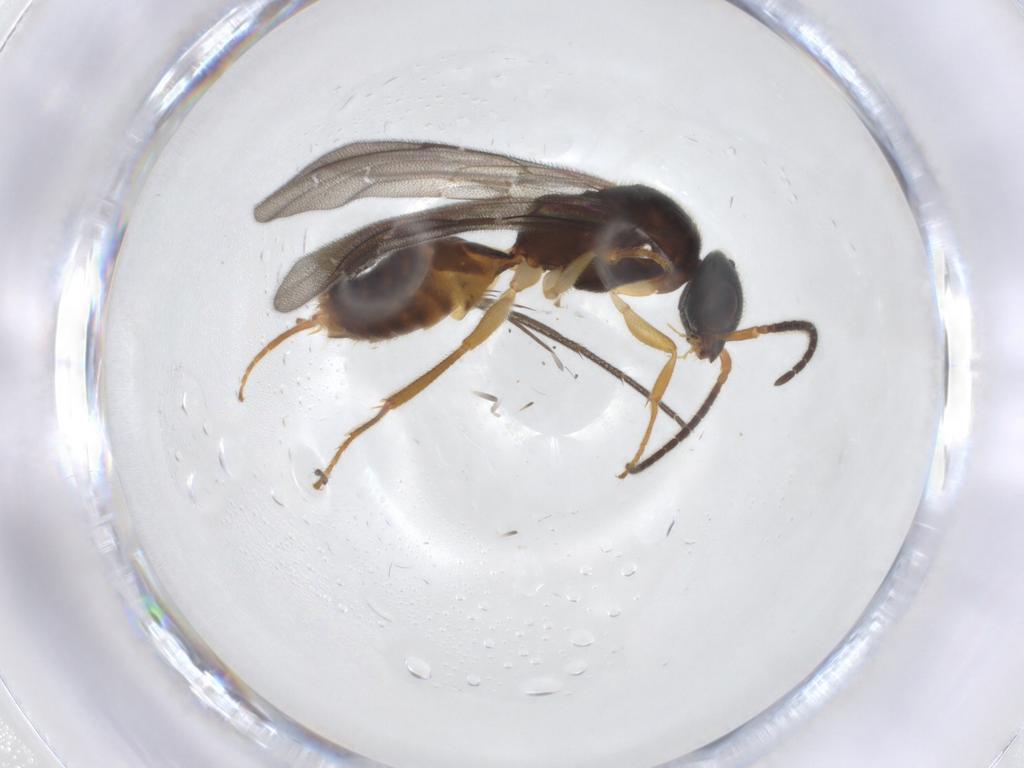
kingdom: Animalia
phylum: Arthropoda
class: Insecta
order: Hymenoptera
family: Bethylidae
